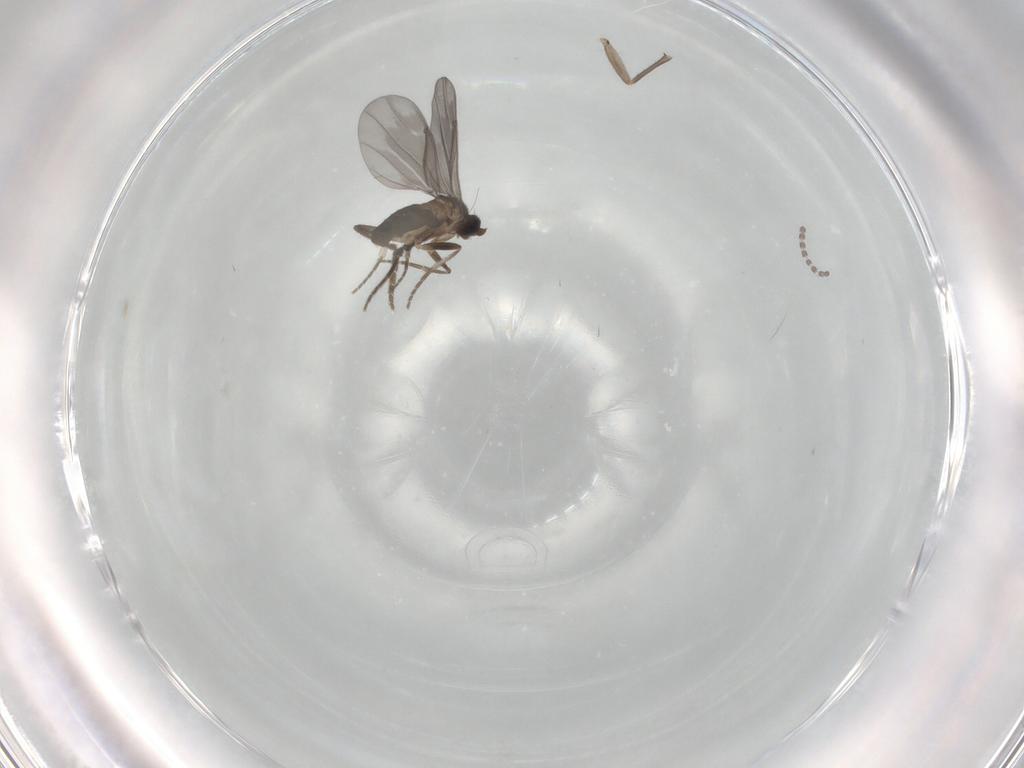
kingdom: Animalia
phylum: Arthropoda
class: Insecta
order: Diptera
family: Phoridae
